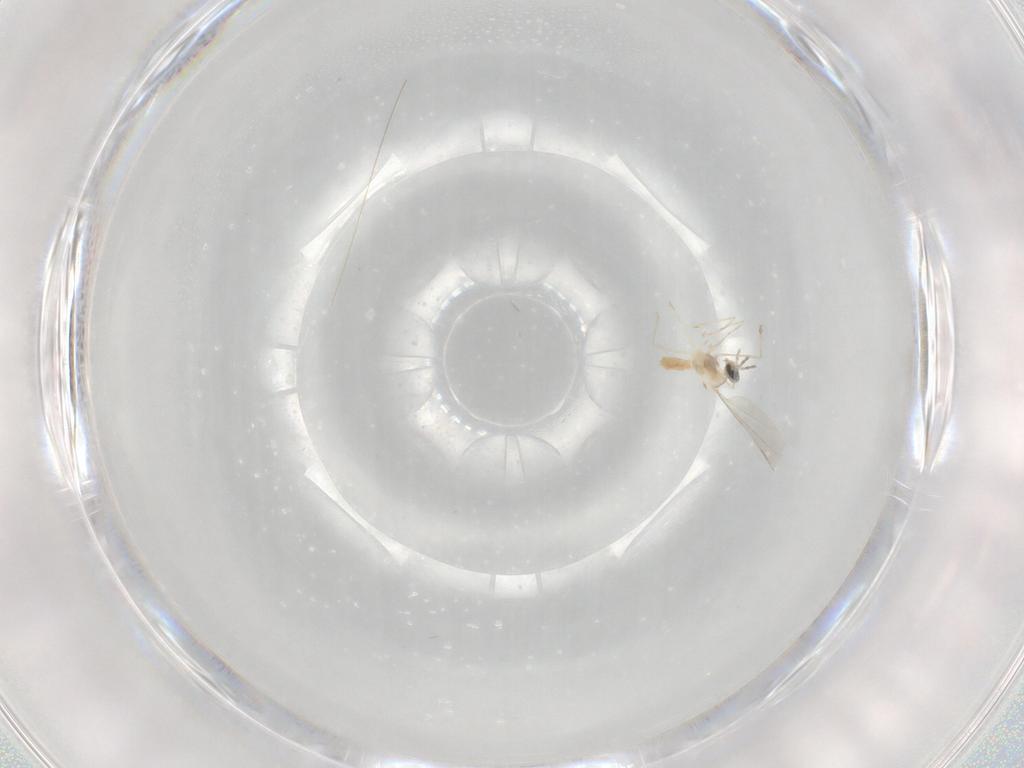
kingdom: Animalia
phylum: Arthropoda
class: Insecta
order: Diptera
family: Cecidomyiidae
